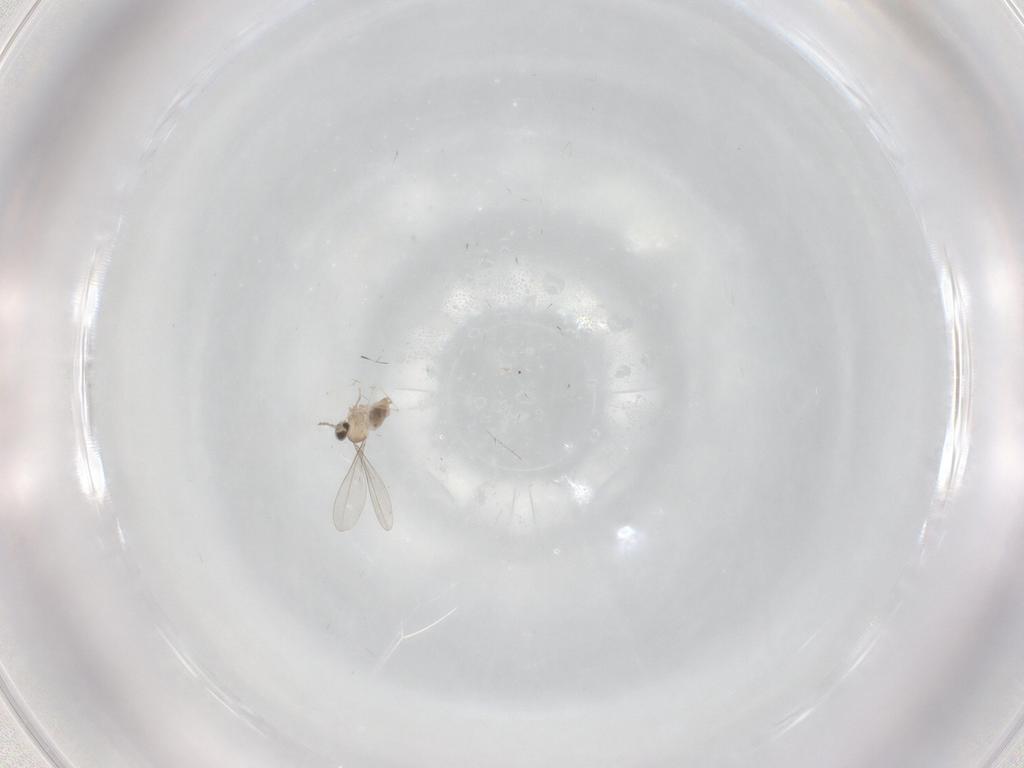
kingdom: Animalia
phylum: Arthropoda
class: Insecta
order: Diptera
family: Cecidomyiidae
